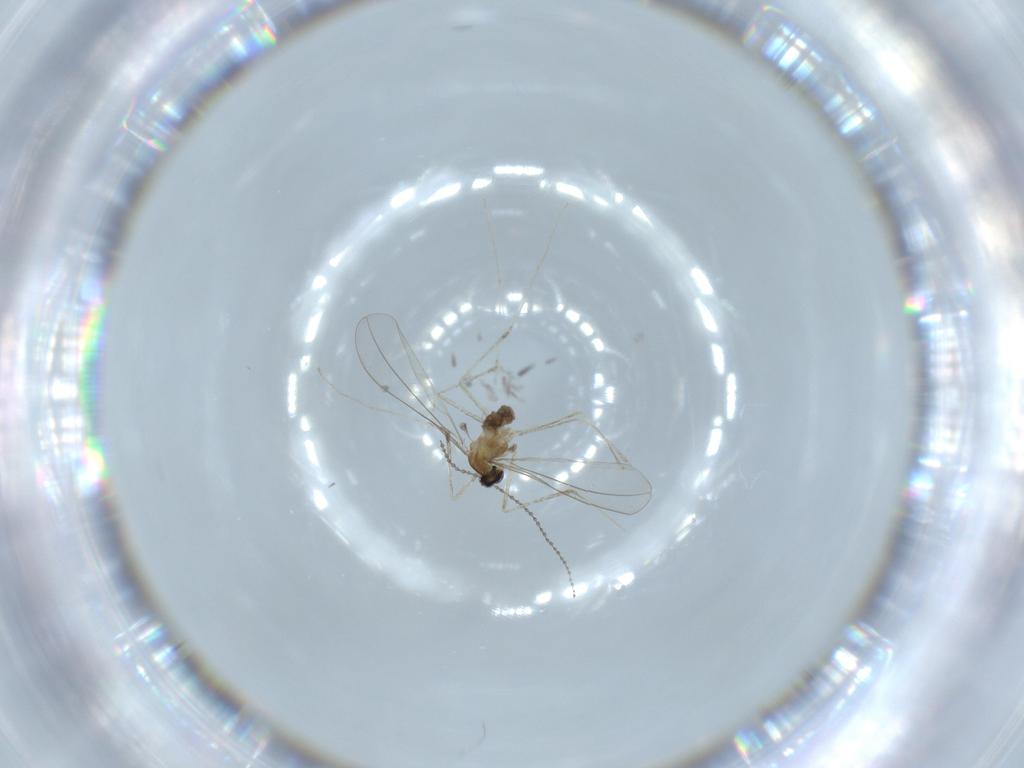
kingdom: Animalia
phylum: Arthropoda
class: Insecta
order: Diptera
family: Cecidomyiidae
